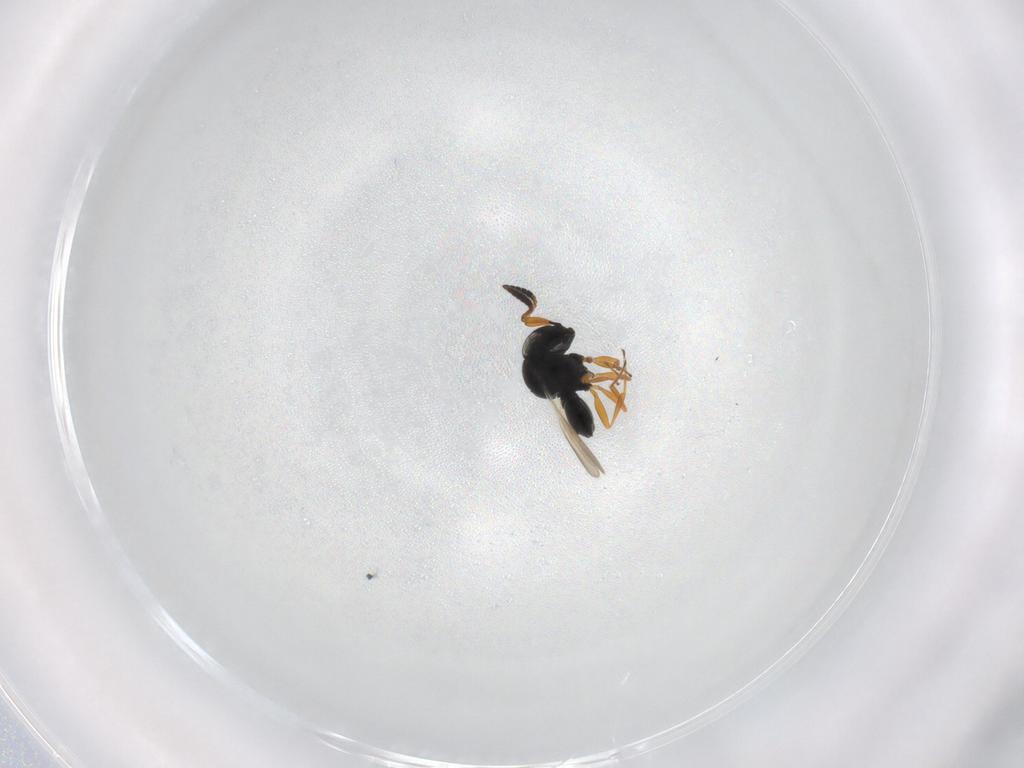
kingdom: Animalia
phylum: Arthropoda
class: Insecta
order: Hymenoptera
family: Scelionidae
